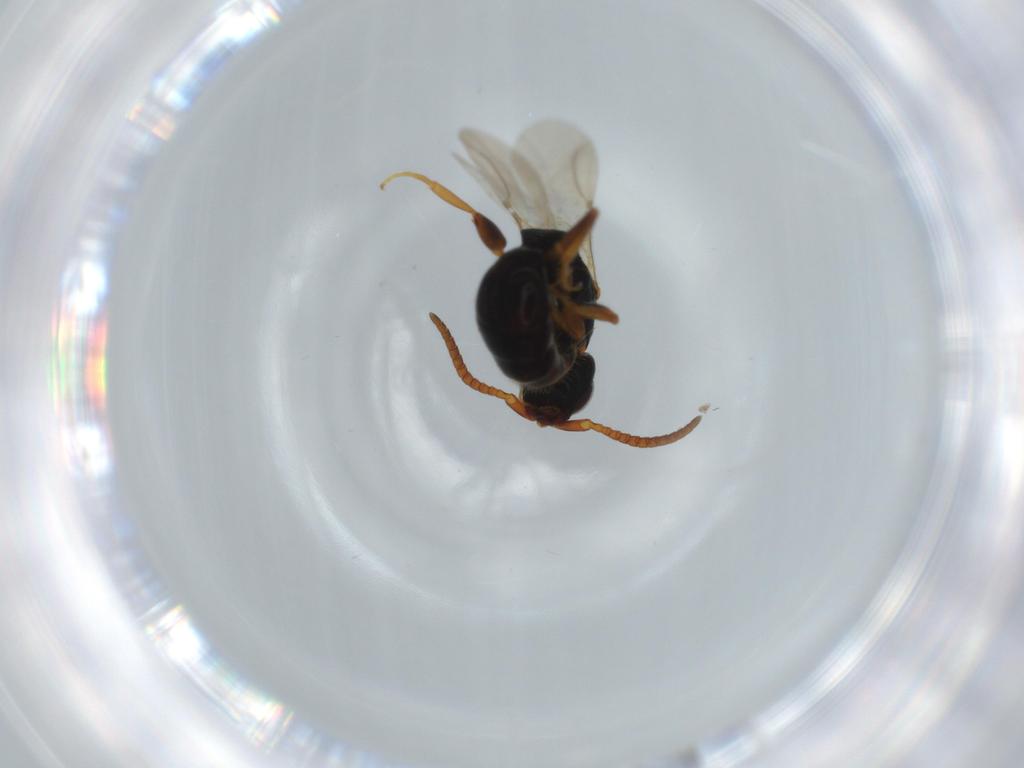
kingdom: Animalia
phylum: Arthropoda
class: Insecta
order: Hymenoptera
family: Bethylidae
